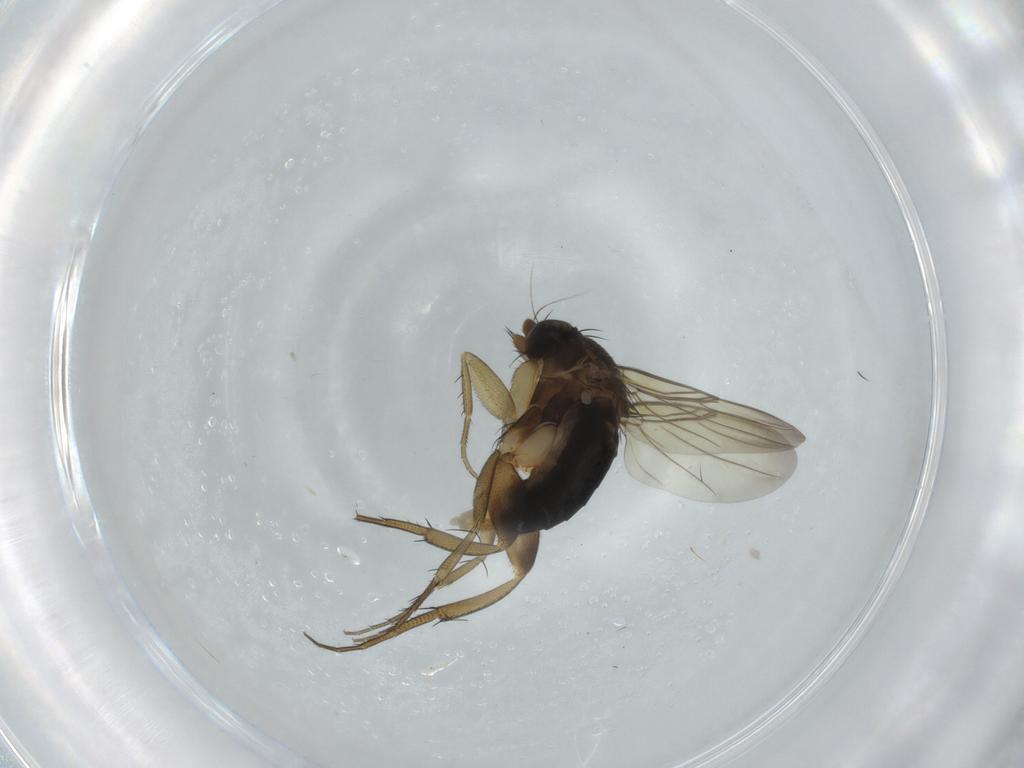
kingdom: Animalia
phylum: Arthropoda
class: Insecta
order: Diptera
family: Phoridae
